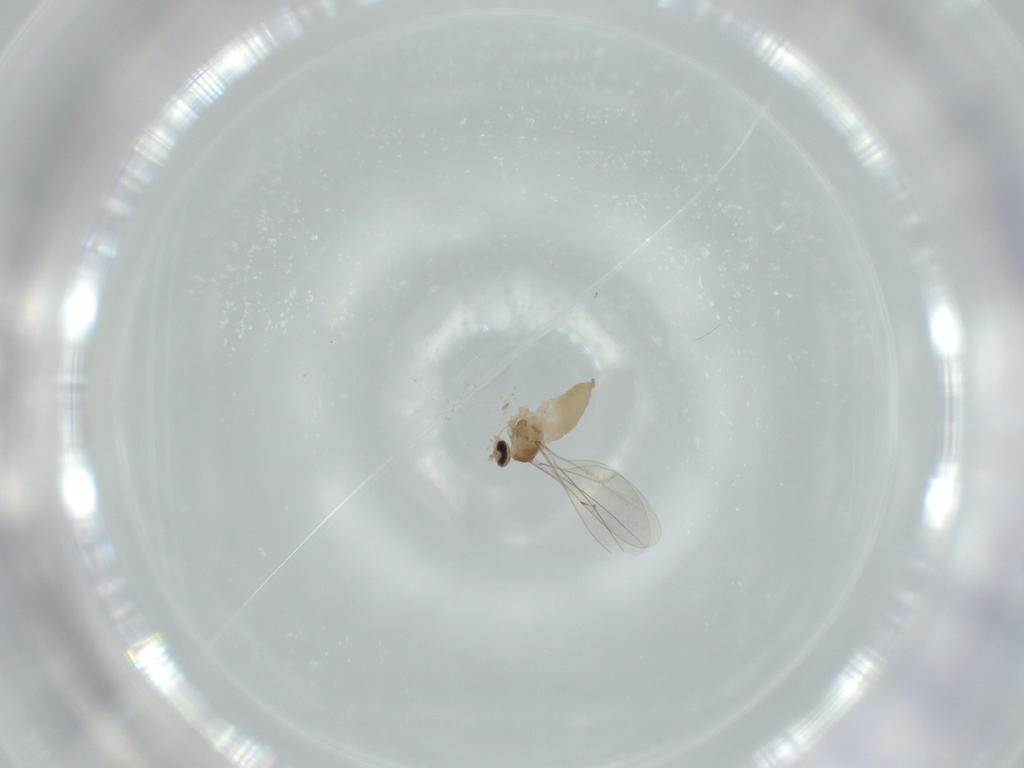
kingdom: Animalia
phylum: Arthropoda
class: Insecta
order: Diptera
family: Cecidomyiidae
